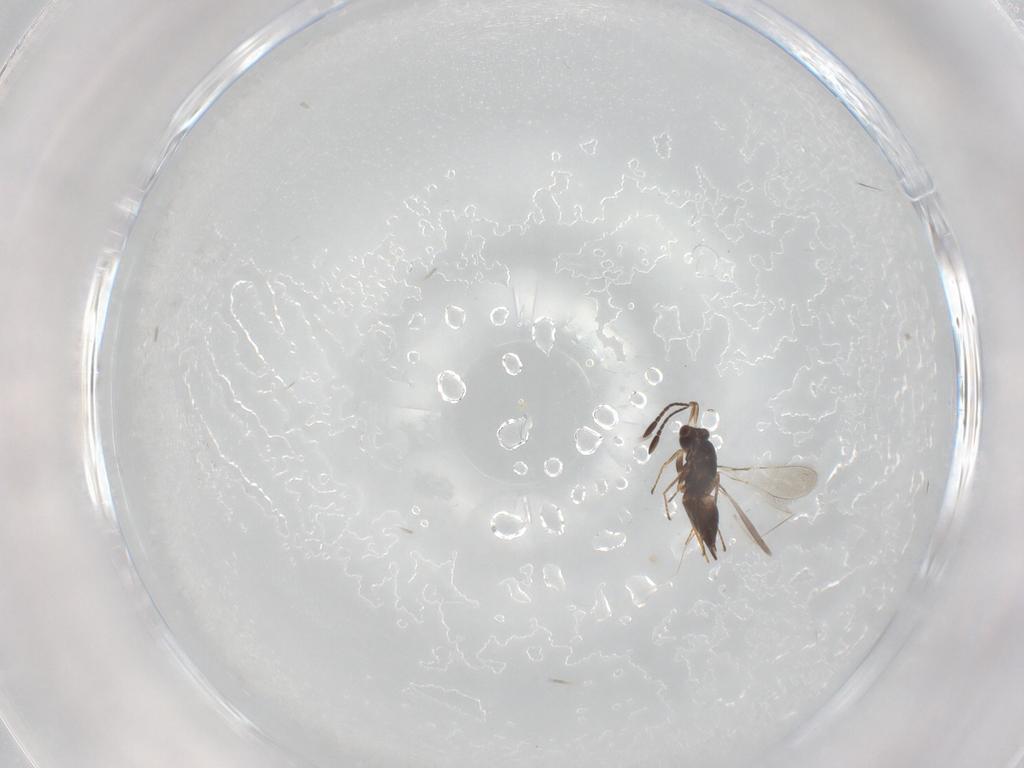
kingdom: Animalia
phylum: Arthropoda
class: Insecta
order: Hymenoptera
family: Mymaridae
